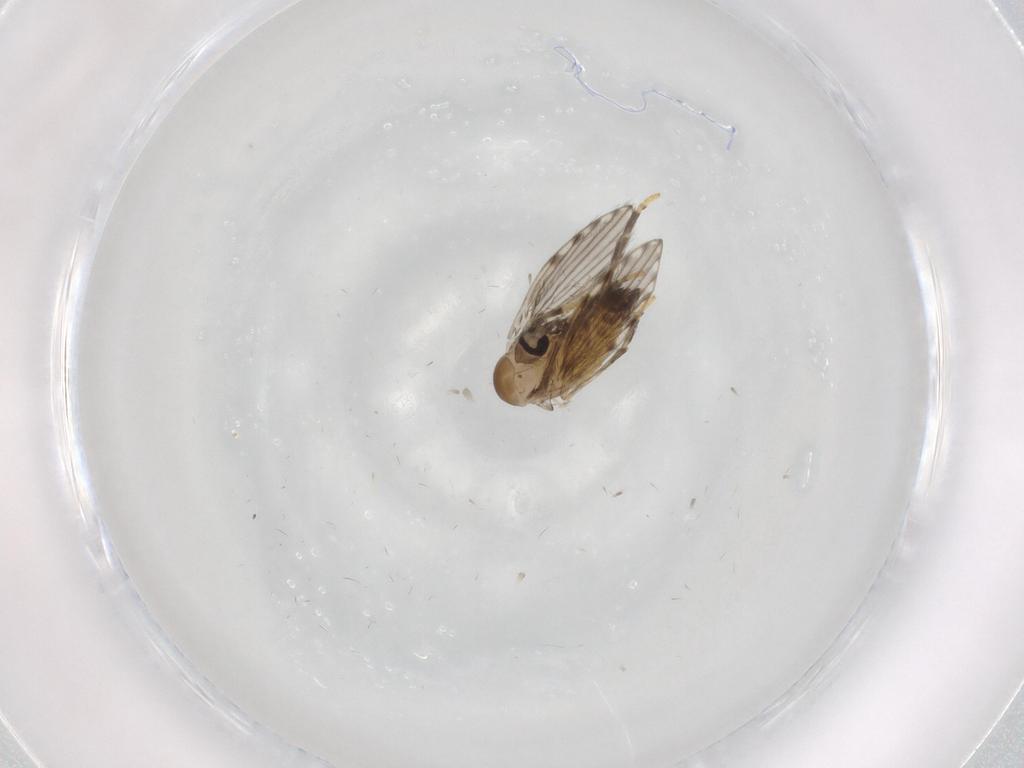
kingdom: Animalia
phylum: Arthropoda
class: Insecta
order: Diptera
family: Psychodidae
